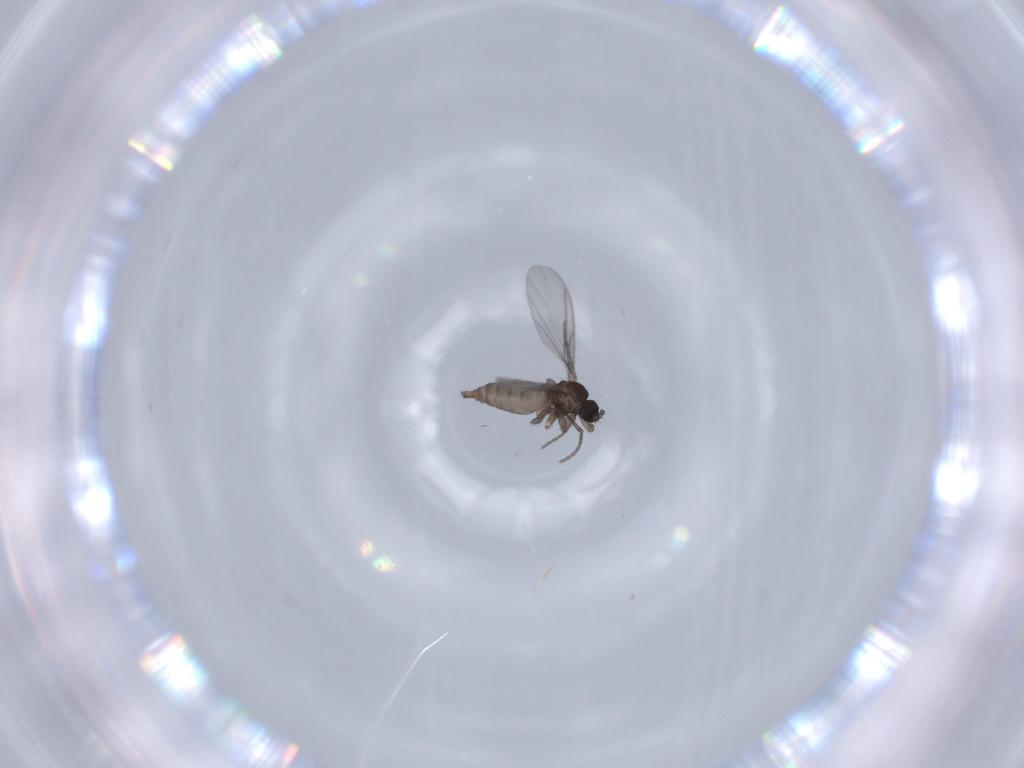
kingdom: Animalia
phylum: Arthropoda
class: Insecta
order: Diptera
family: Sciaridae
